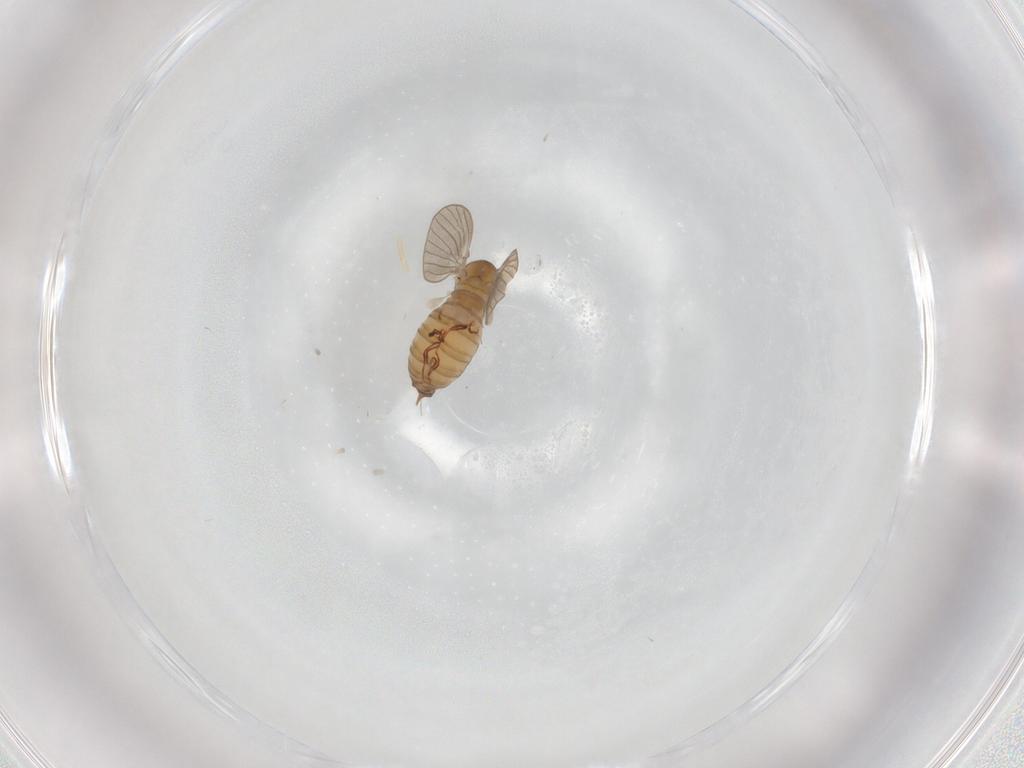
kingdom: Animalia
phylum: Arthropoda
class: Insecta
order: Diptera
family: Psychodidae
